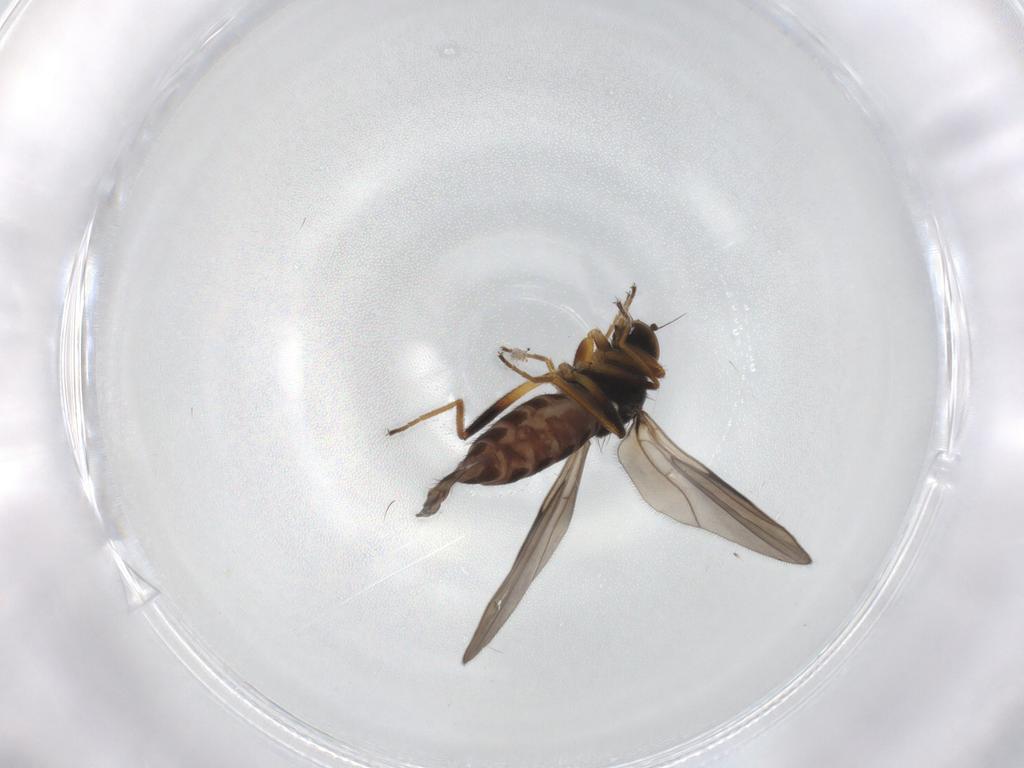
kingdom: Animalia
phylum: Arthropoda
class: Insecta
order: Diptera
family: Hybotidae
